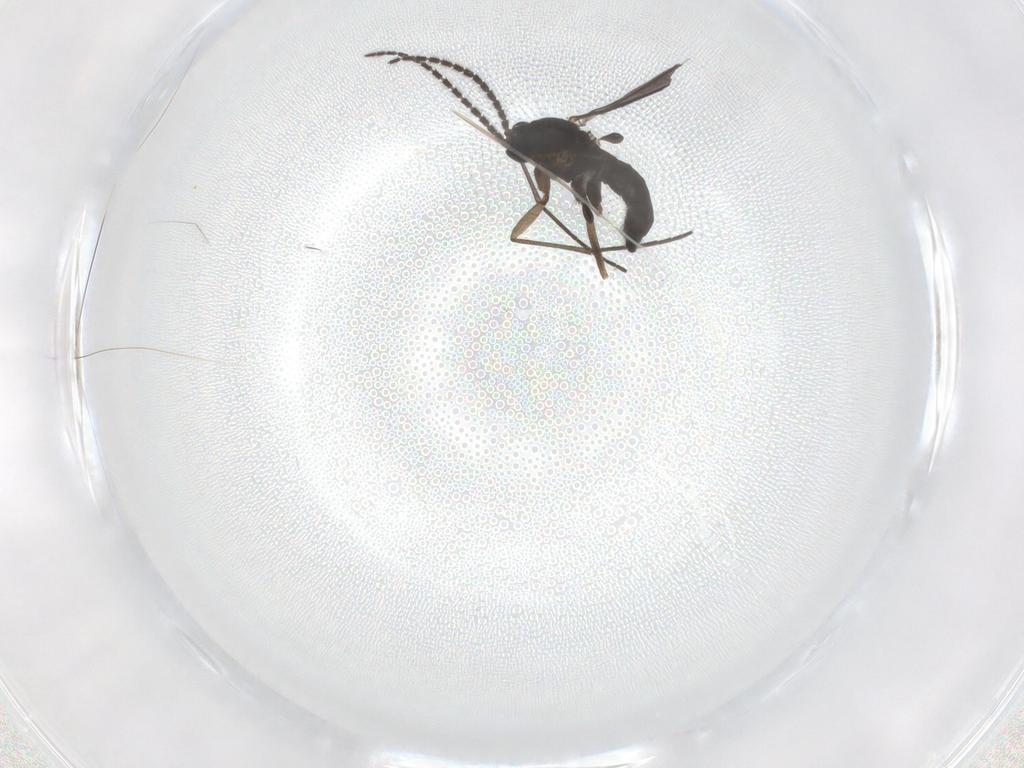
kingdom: Animalia
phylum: Arthropoda
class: Insecta
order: Diptera
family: Sciaridae
